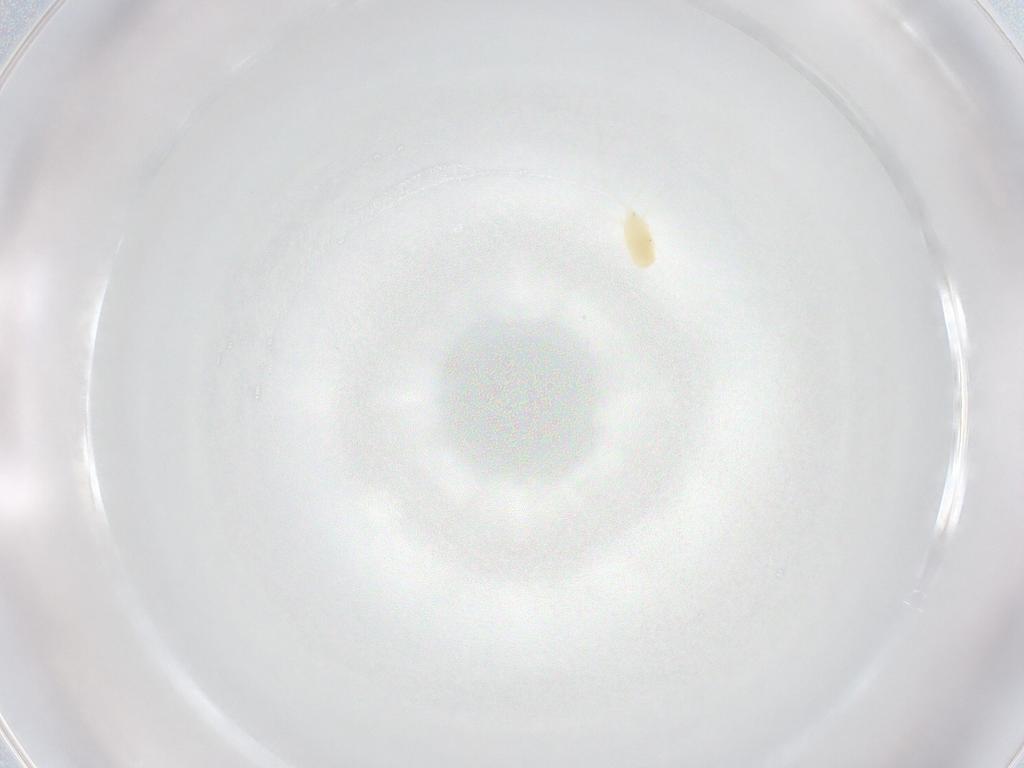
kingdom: Animalia
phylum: Arthropoda
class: Arachnida
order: Trombidiformes
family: Tetranychidae
